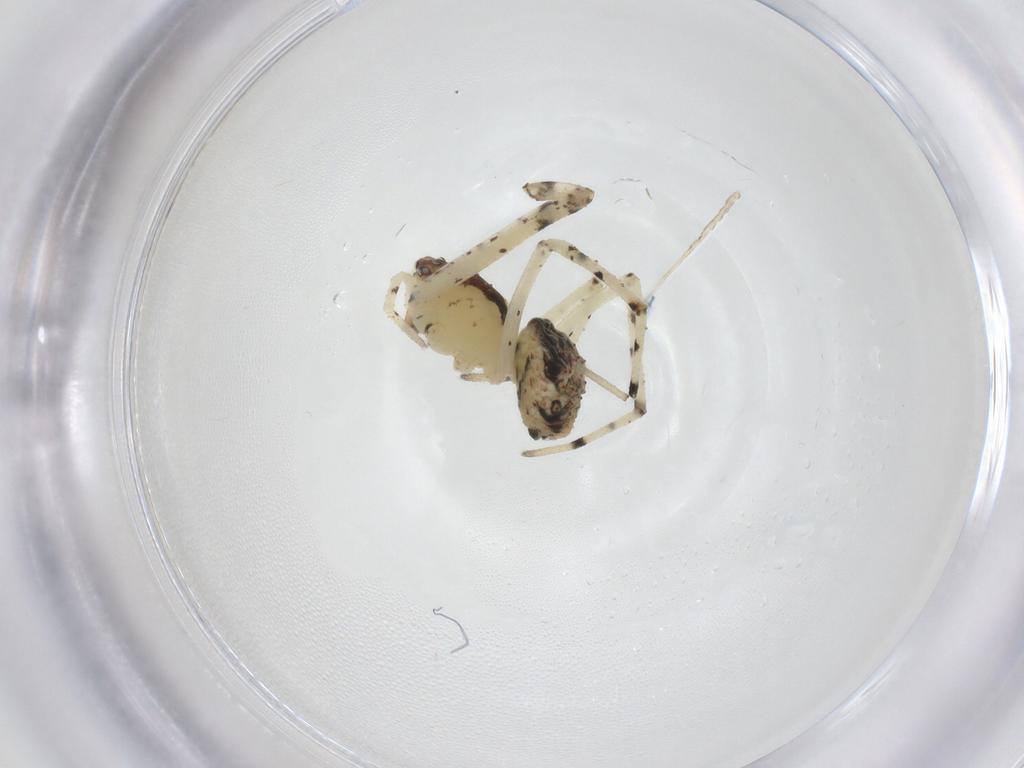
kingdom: Animalia
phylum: Arthropoda
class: Arachnida
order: Araneae
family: Mimetidae
